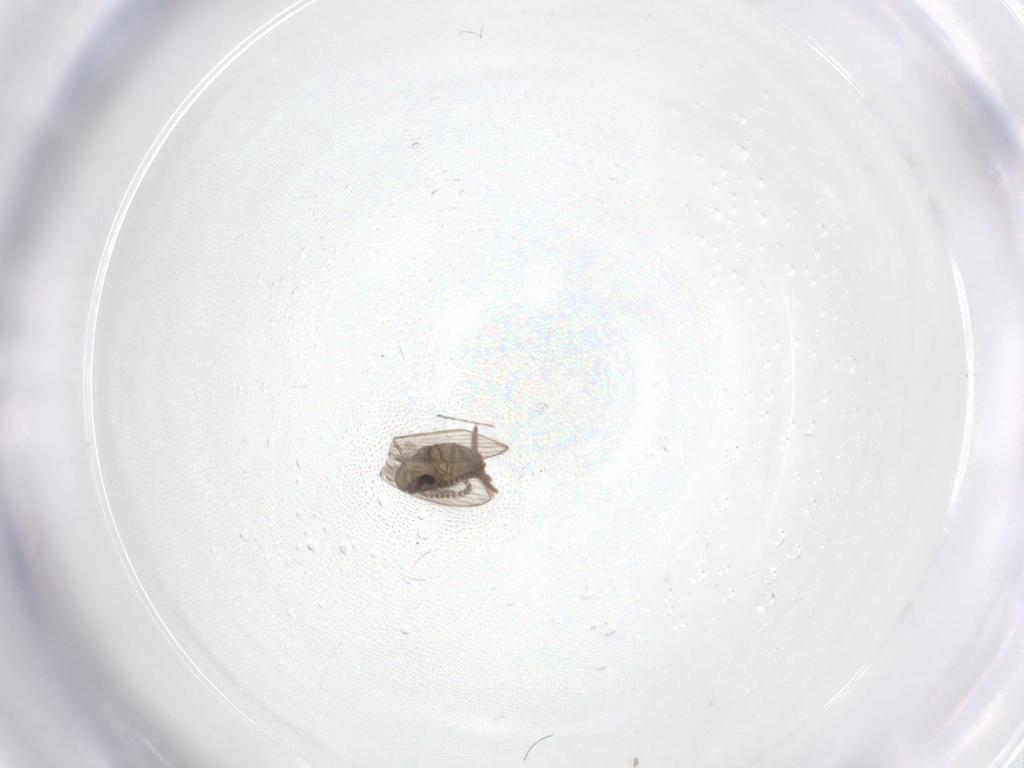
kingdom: Animalia
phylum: Arthropoda
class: Insecta
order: Diptera
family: Psychodidae
